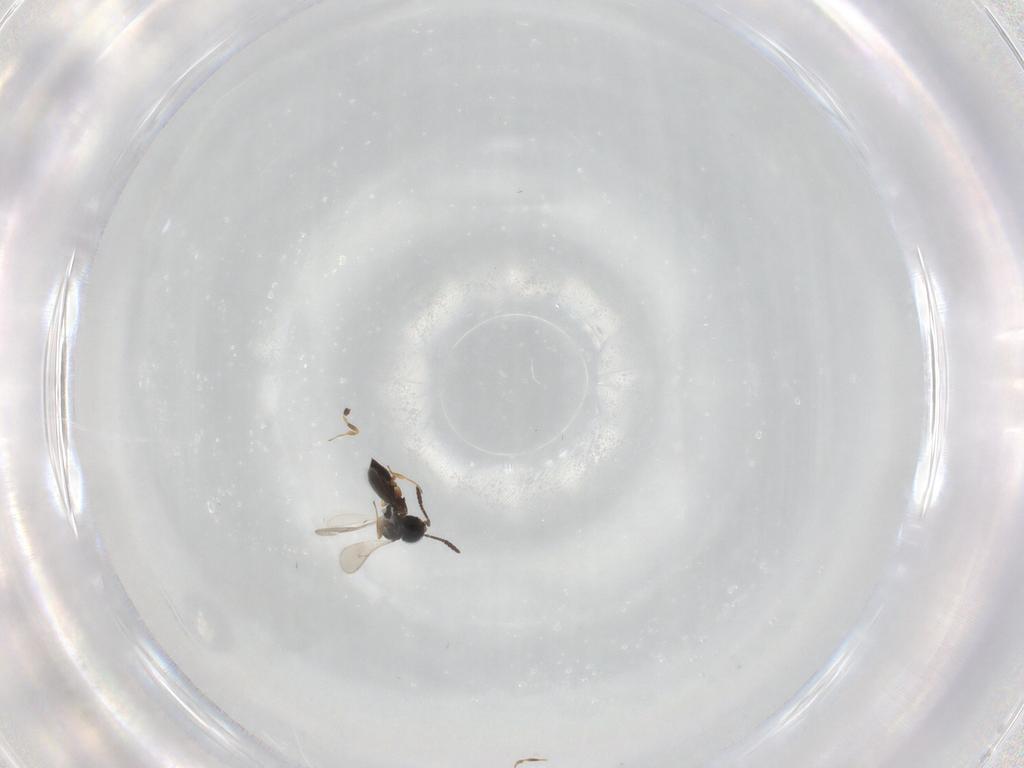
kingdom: Animalia
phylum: Arthropoda
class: Insecta
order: Hymenoptera
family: Scelionidae
